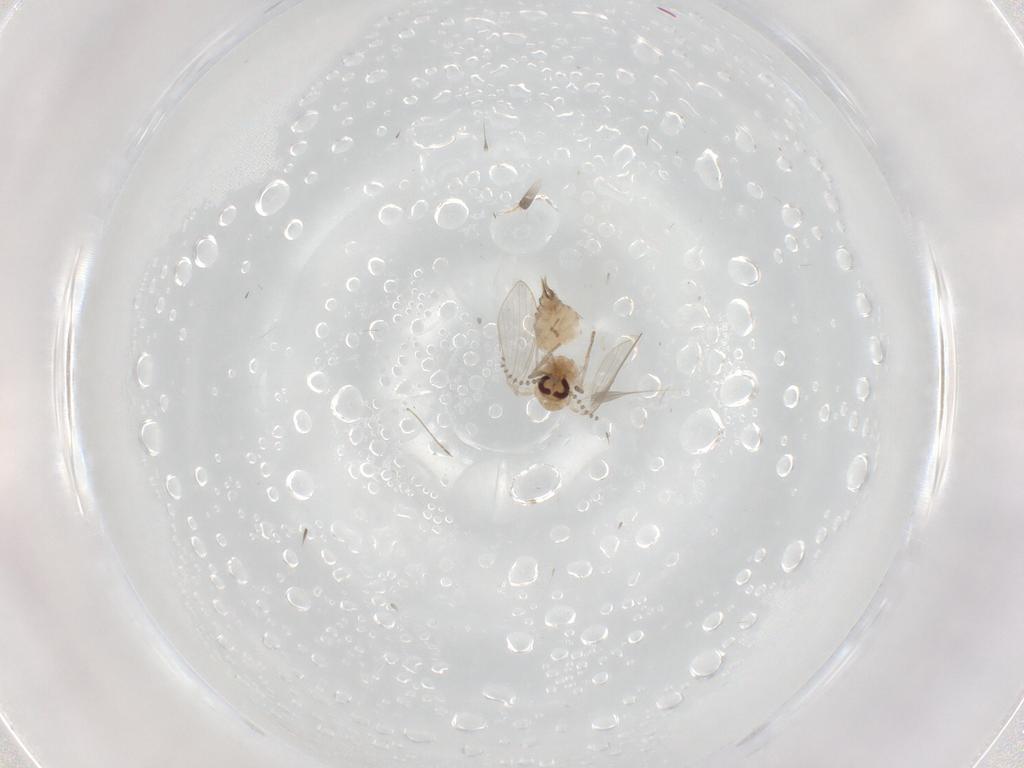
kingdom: Animalia
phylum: Arthropoda
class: Insecta
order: Diptera
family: Psychodidae
